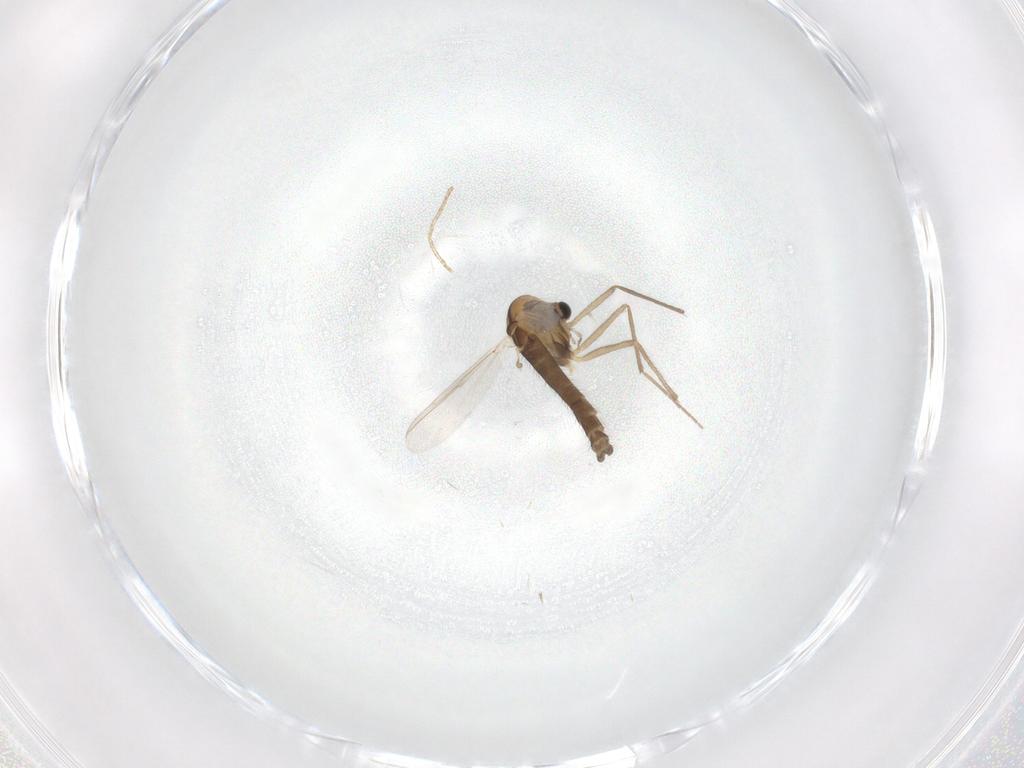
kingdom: Animalia
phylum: Arthropoda
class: Insecta
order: Diptera
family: Chironomidae
